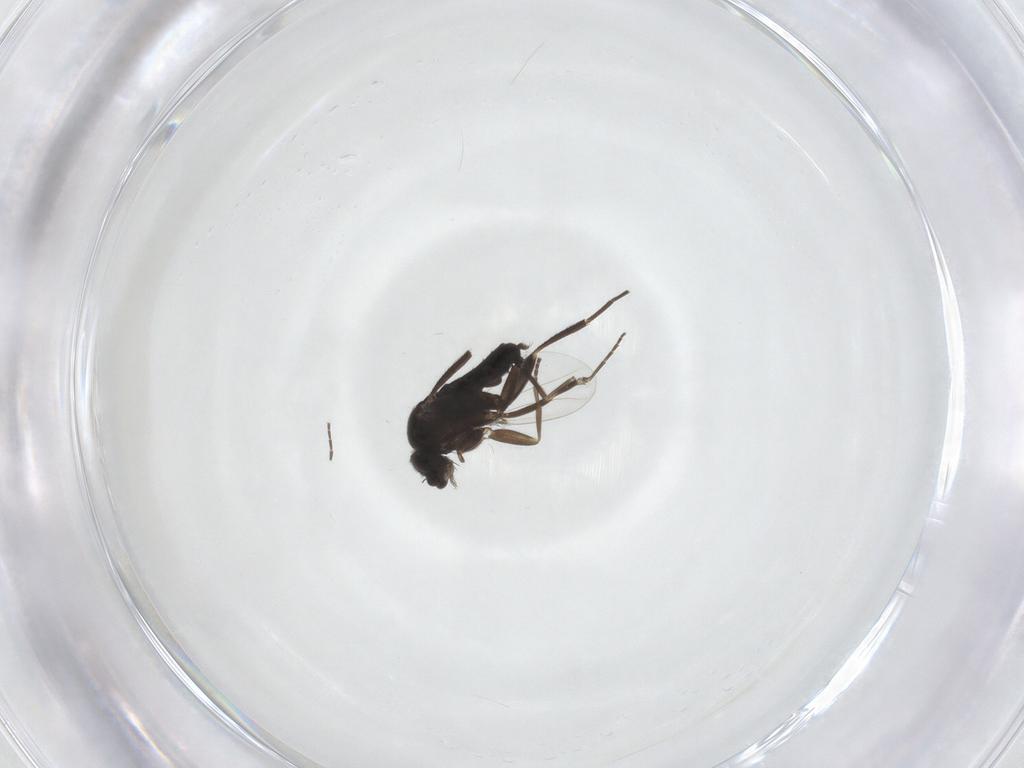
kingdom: Animalia
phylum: Arthropoda
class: Insecta
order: Diptera
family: Phoridae
